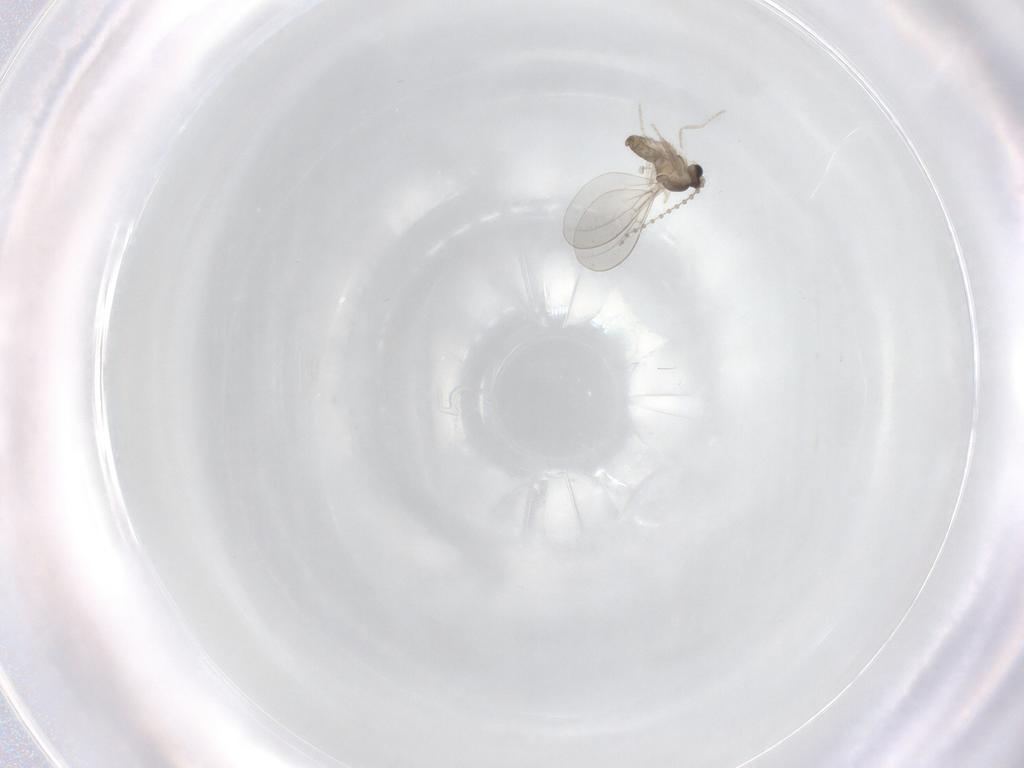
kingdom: Animalia
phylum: Arthropoda
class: Insecta
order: Diptera
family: Cecidomyiidae
